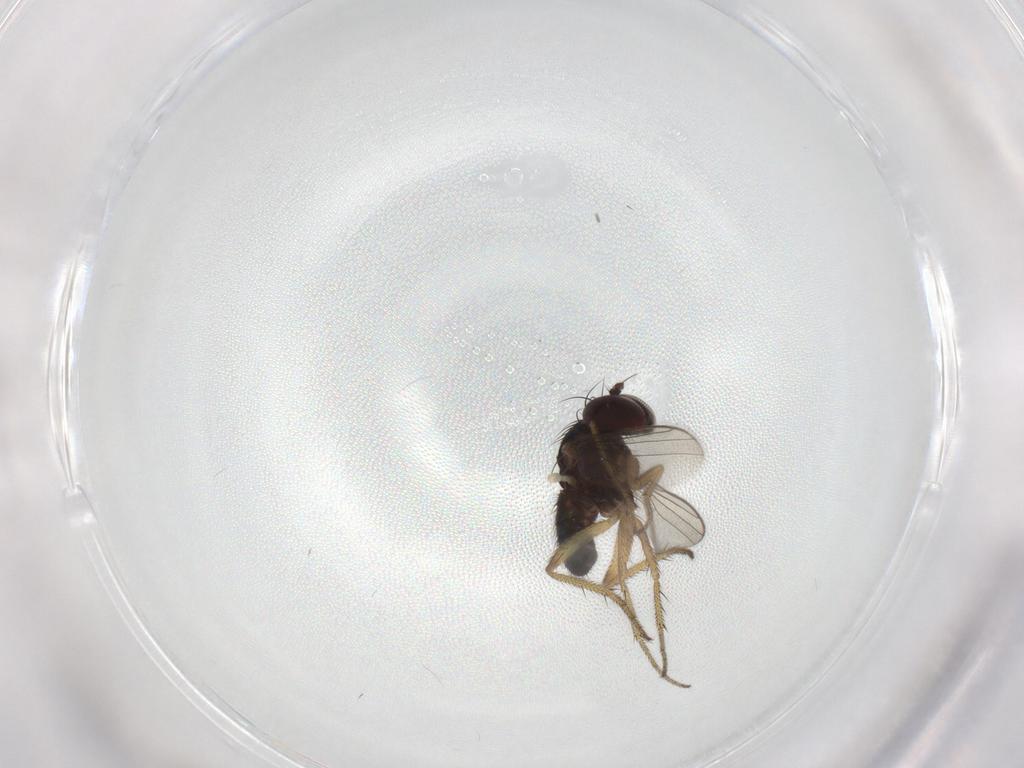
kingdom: Animalia
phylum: Arthropoda
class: Insecta
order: Diptera
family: Dolichopodidae
